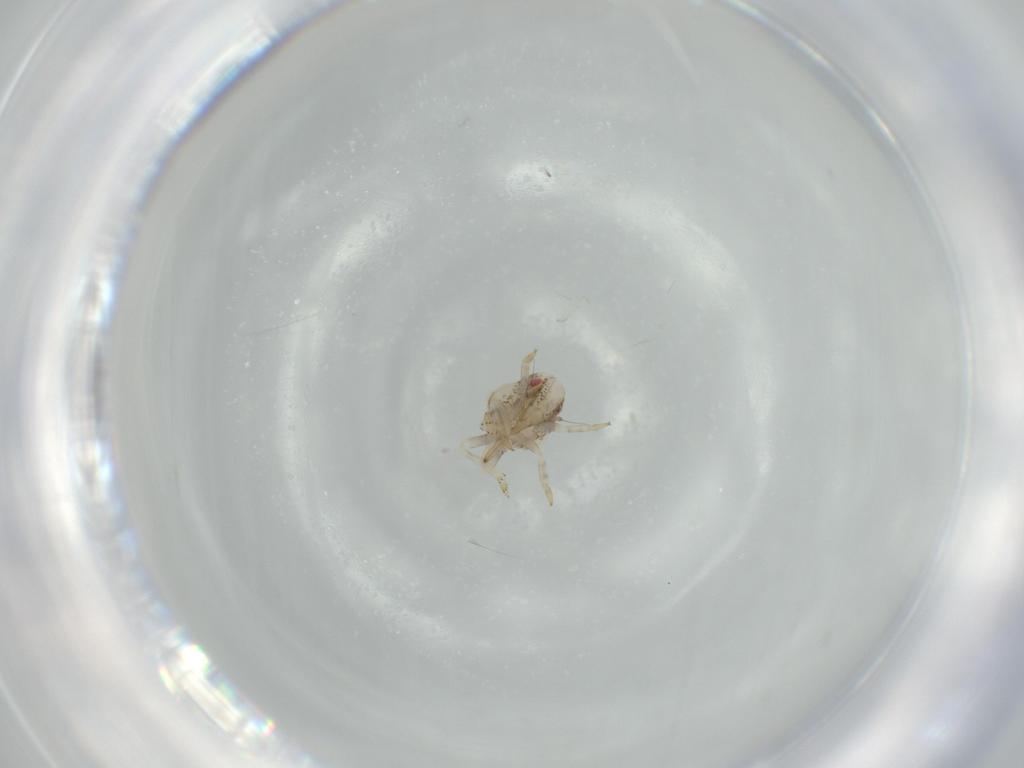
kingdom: Animalia
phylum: Arthropoda
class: Insecta
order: Hemiptera
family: Acanaloniidae
